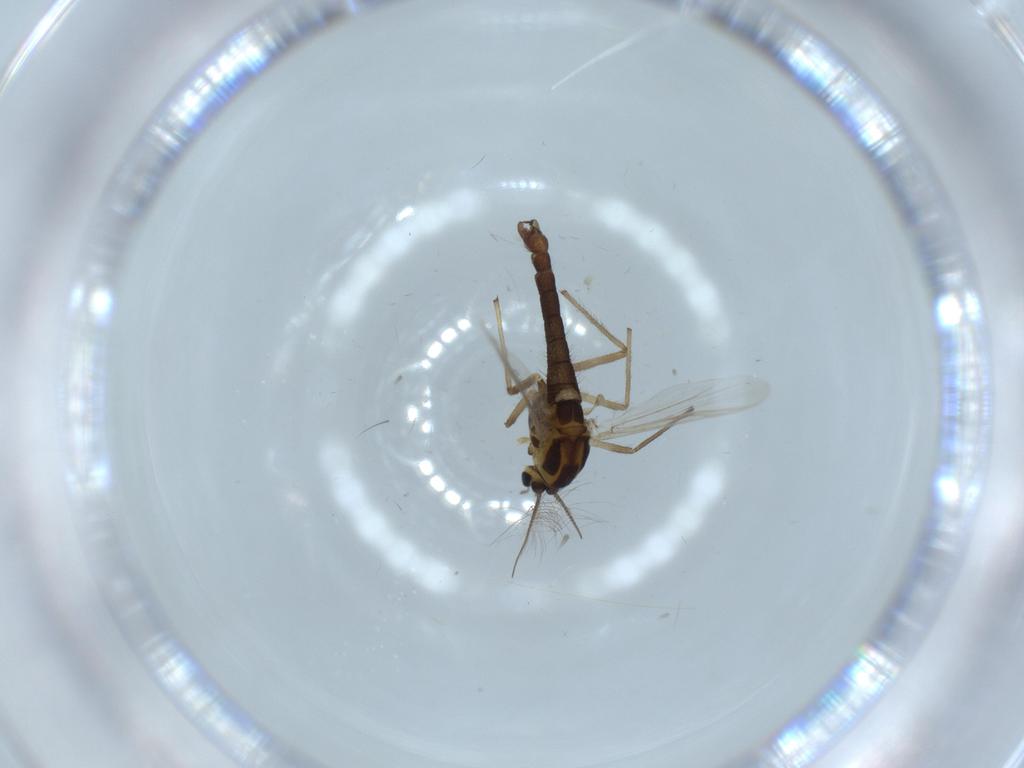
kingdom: Animalia
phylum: Arthropoda
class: Insecta
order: Diptera
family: Chironomidae
